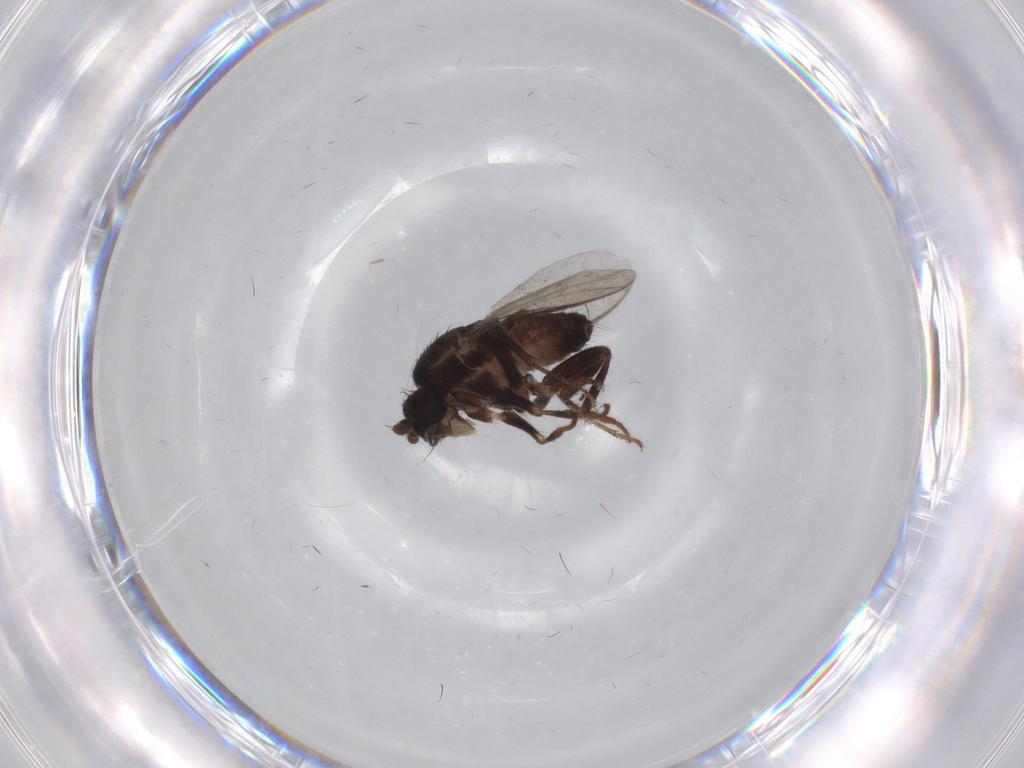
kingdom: Animalia
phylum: Arthropoda
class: Insecta
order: Diptera
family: Sphaeroceridae
